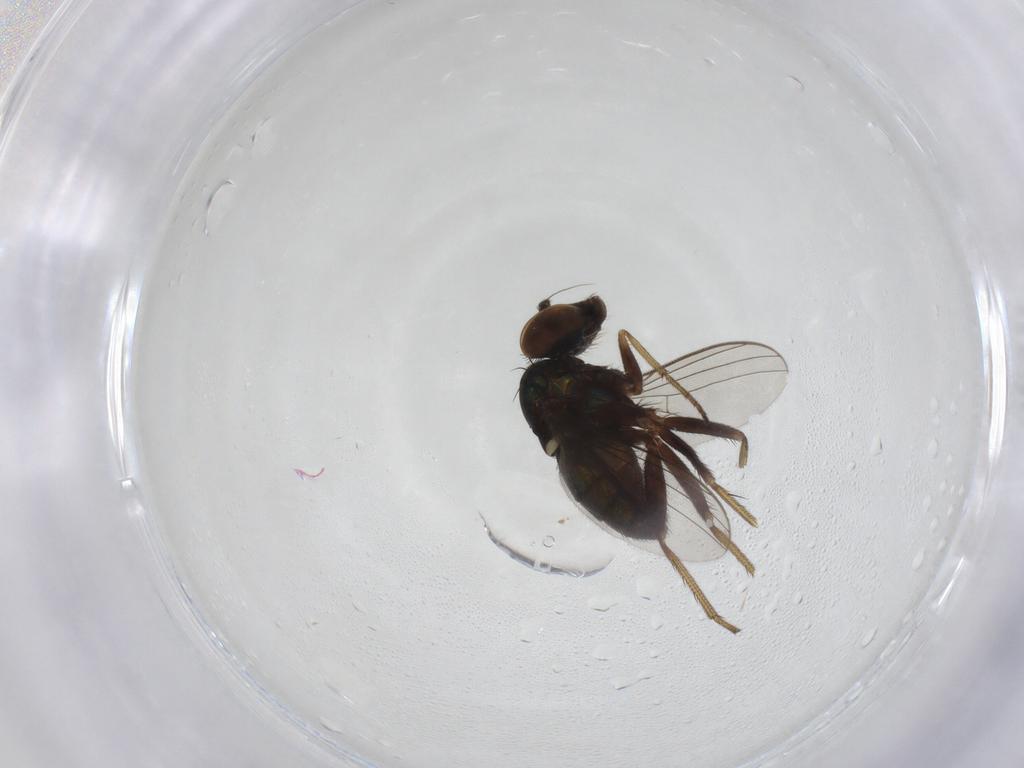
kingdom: Animalia
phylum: Arthropoda
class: Insecta
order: Diptera
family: Dolichopodidae
